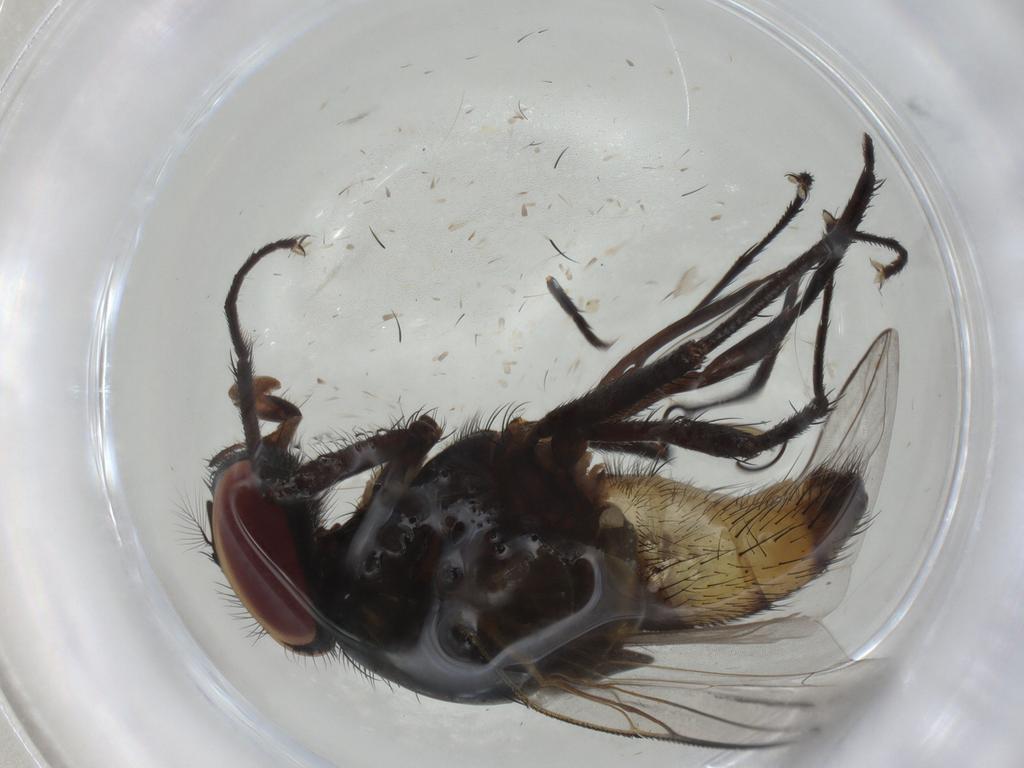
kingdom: Animalia
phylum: Arthropoda
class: Insecta
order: Diptera
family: Muscidae
